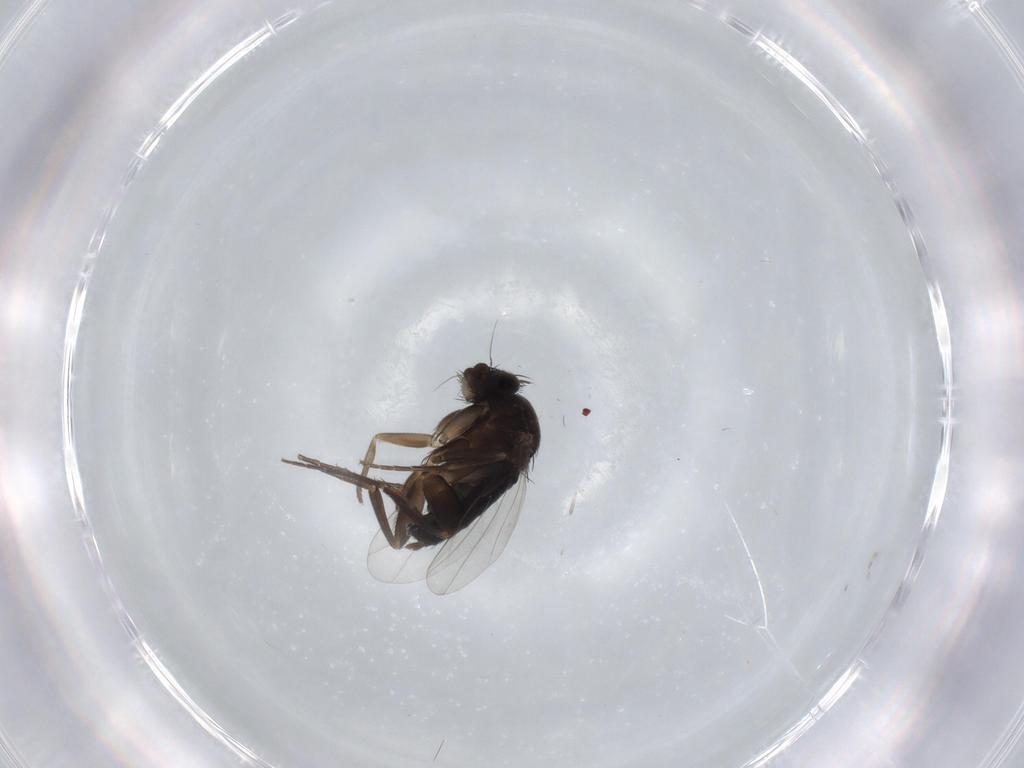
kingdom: Animalia
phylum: Arthropoda
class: Insecta
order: Diptera
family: Phoridae
